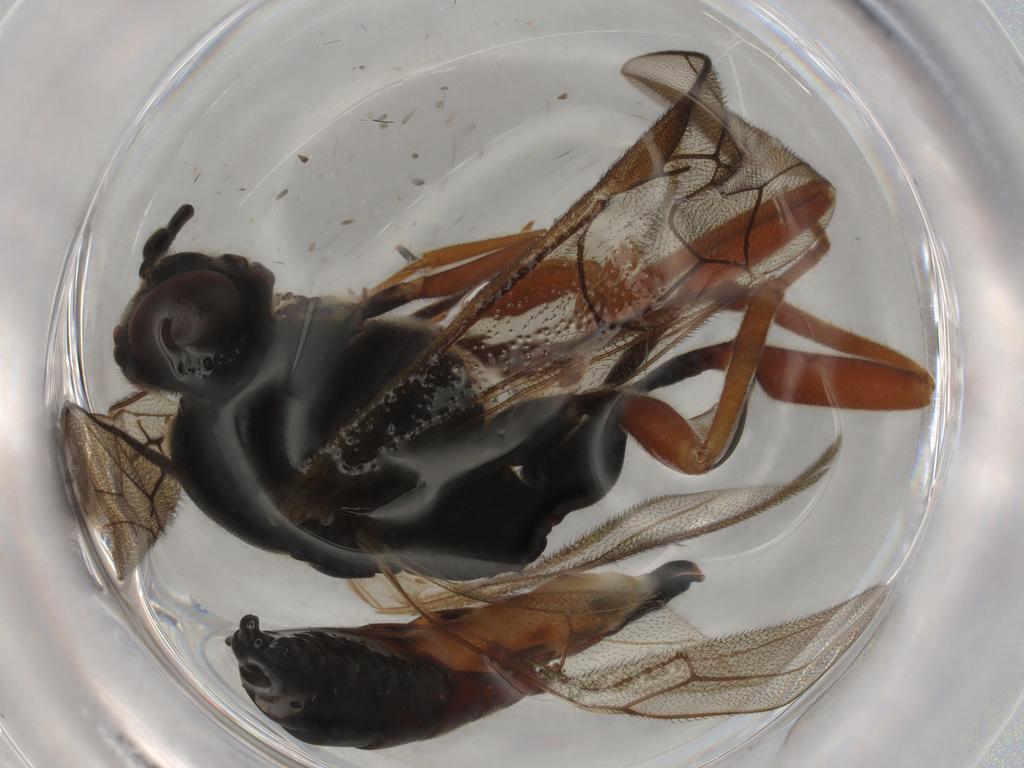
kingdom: Animalia
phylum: Arthropoda
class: Insecta
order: Hymenoptera
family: Ichneumonidae
